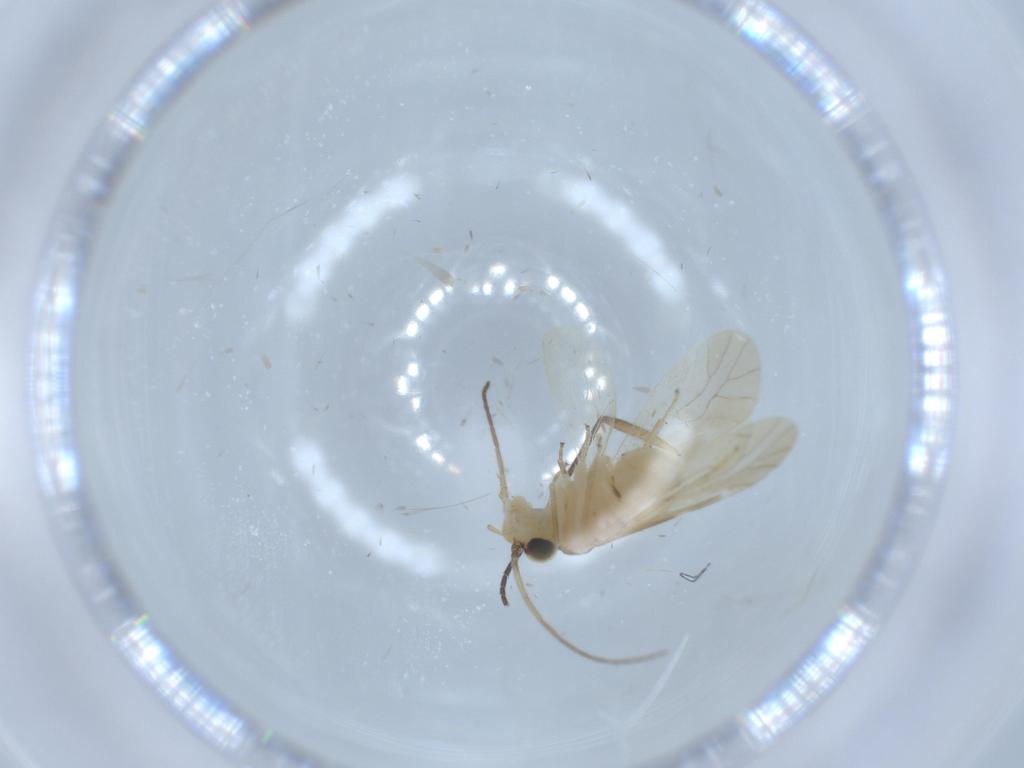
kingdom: Animalia
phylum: Arthropoda
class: Insecta
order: Psocodea
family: Caeciliusidae
